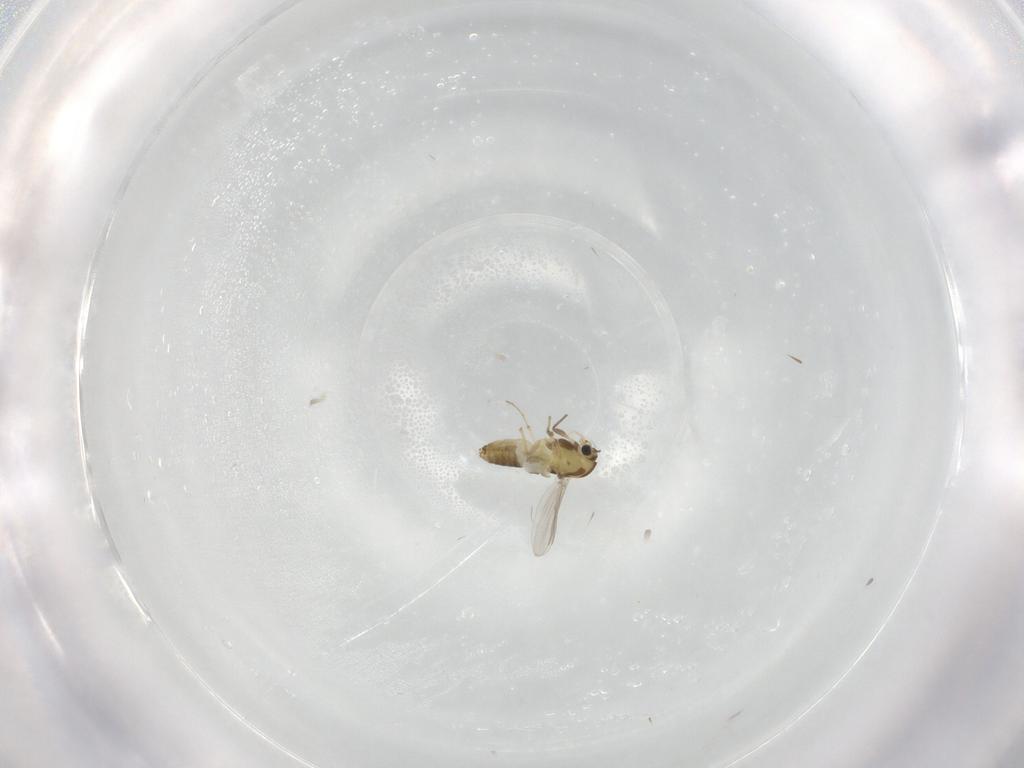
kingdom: Animalia
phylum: Arthropoda
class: Insecta
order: Diptera
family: Chironomidae
